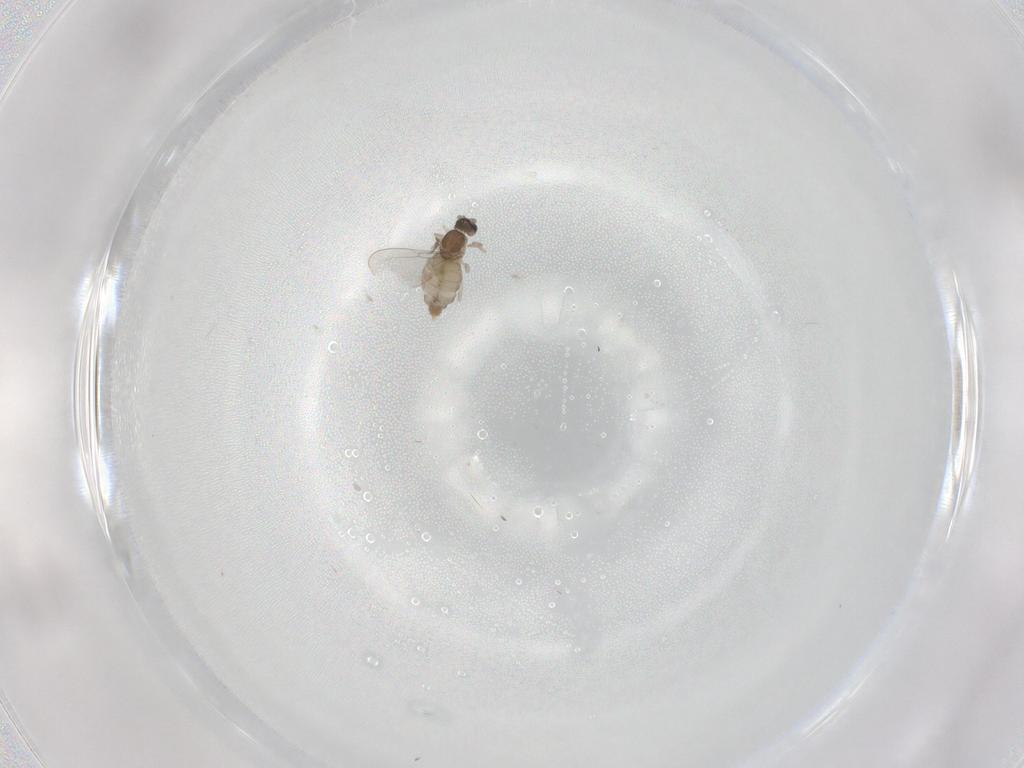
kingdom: Animalia
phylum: Arthropoda
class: Insecta
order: Diptera
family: Cecidomyiidae
